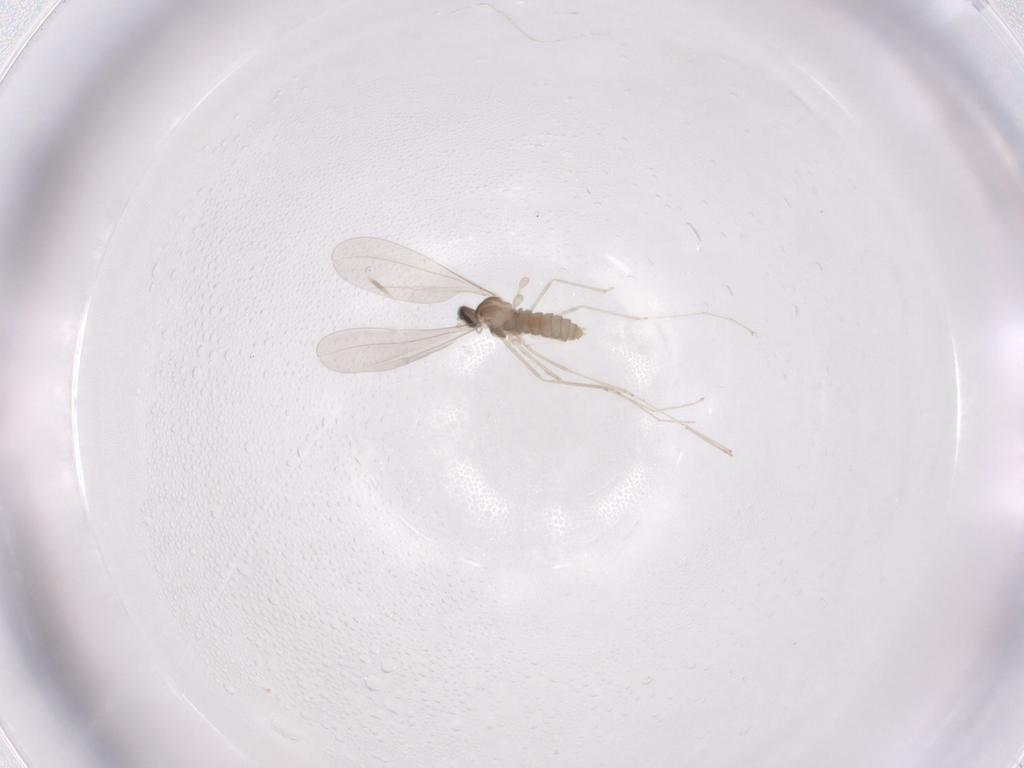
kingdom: Animalia
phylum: Arthropoda
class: Insecta
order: Diptera
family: Cecidomyiidae
